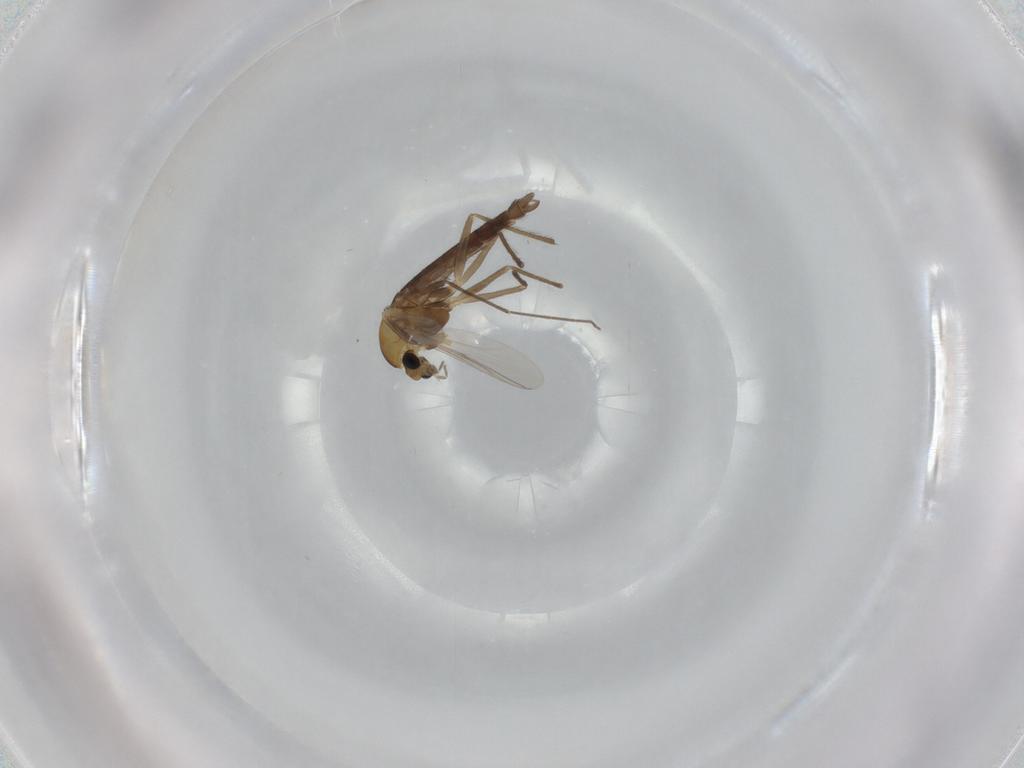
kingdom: Animalia
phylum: Arthropoda
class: Insecta
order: Diptera
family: Chironomidae
